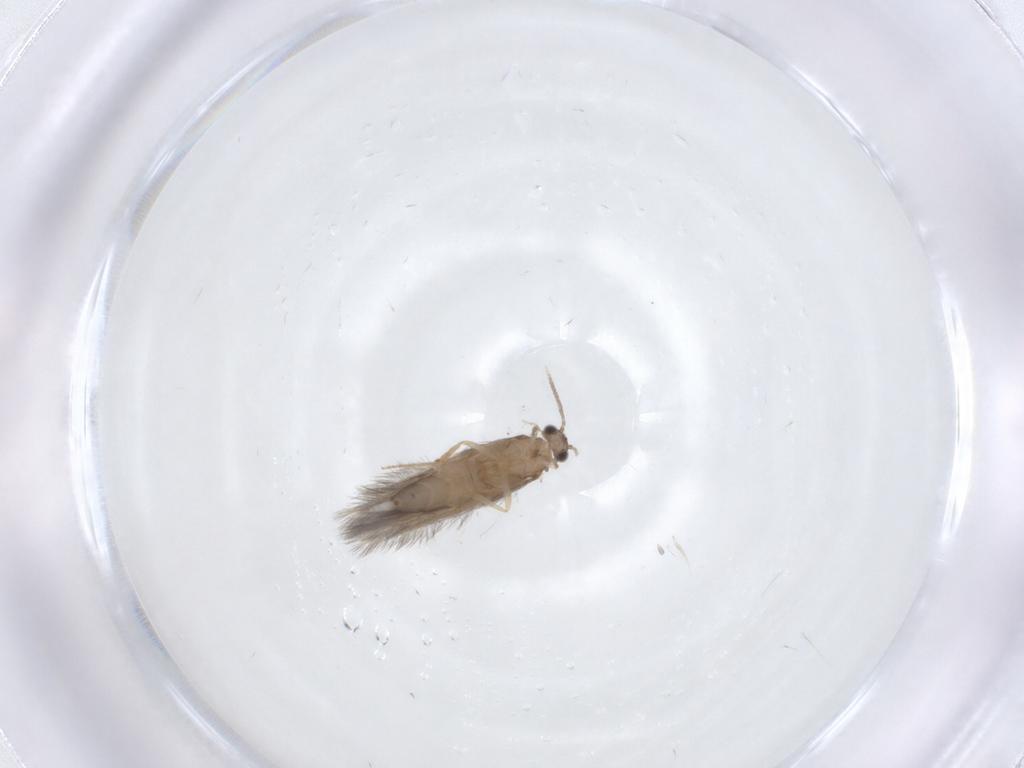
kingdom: Animalia
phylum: Arthropoda
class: Insecta
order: Trichoptera
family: Hydroptilidae
